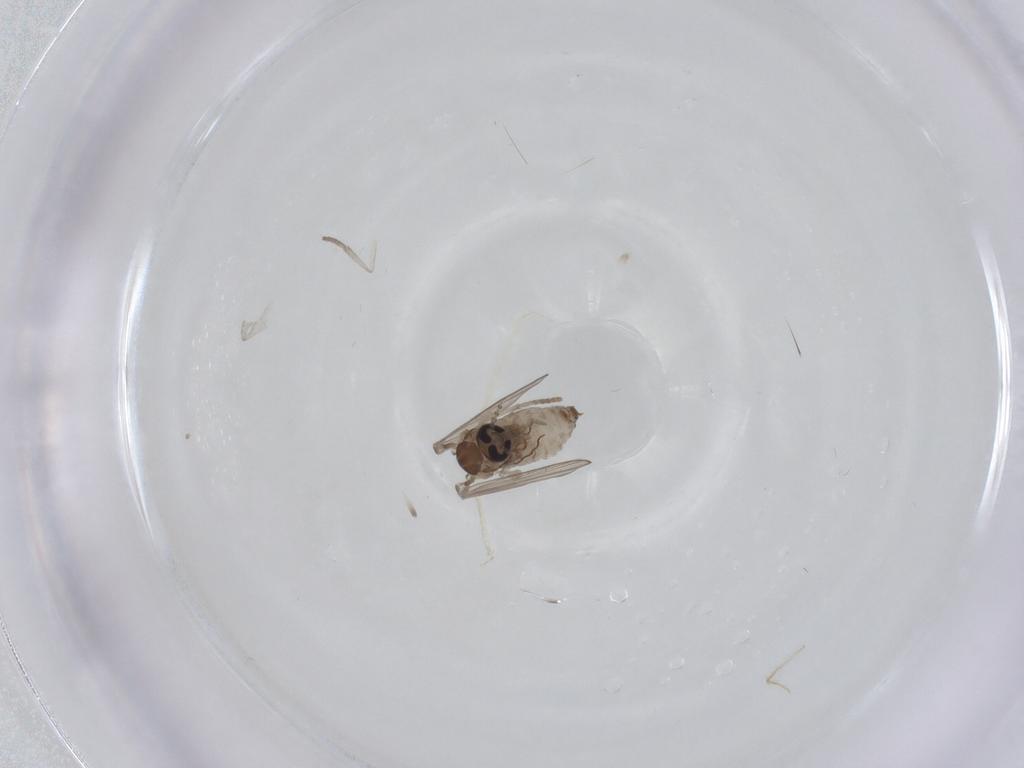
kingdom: Animalia
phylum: Arthropoda
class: Insecta
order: Diptera
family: Psychodidae
